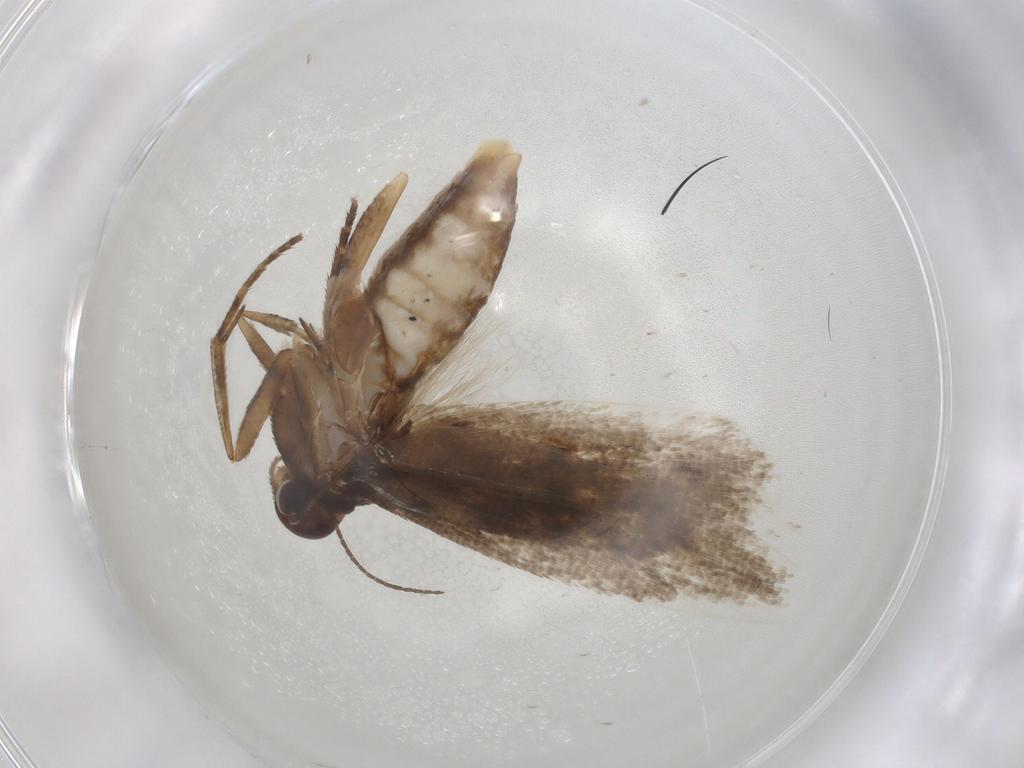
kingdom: Animalia
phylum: Arthropoda
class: Insecta
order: Lepidoptera
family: Gelechiidae
